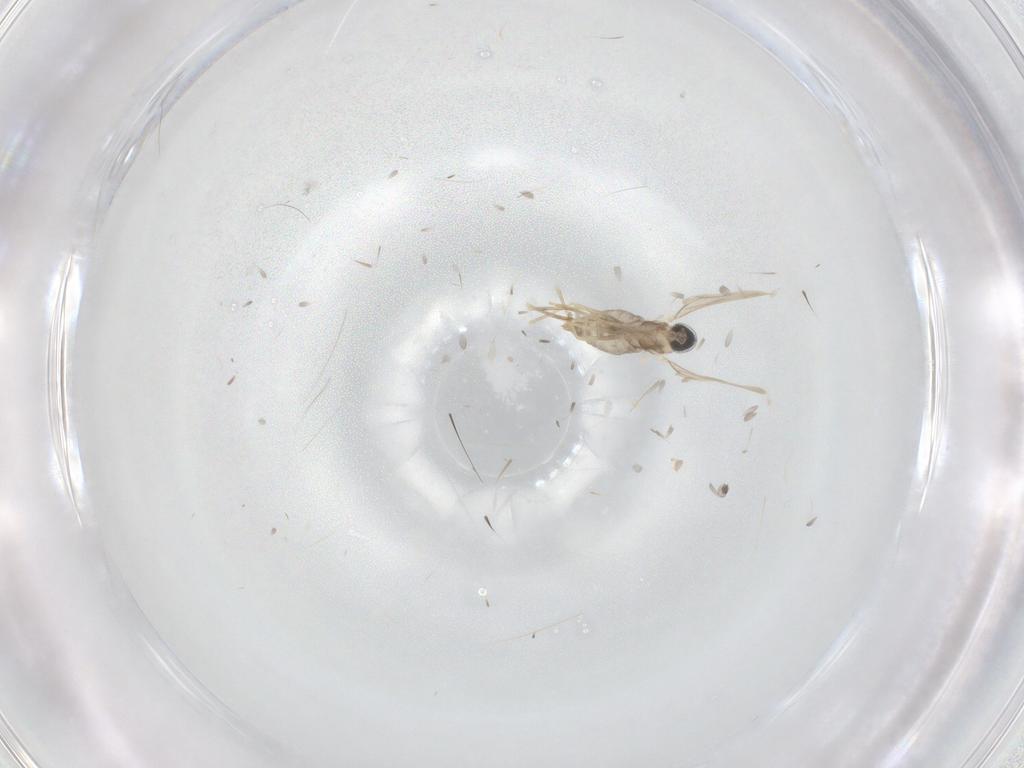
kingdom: Animalia
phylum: Arthropoda
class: Insecta
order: Diptera
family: Cecidomyiidae
